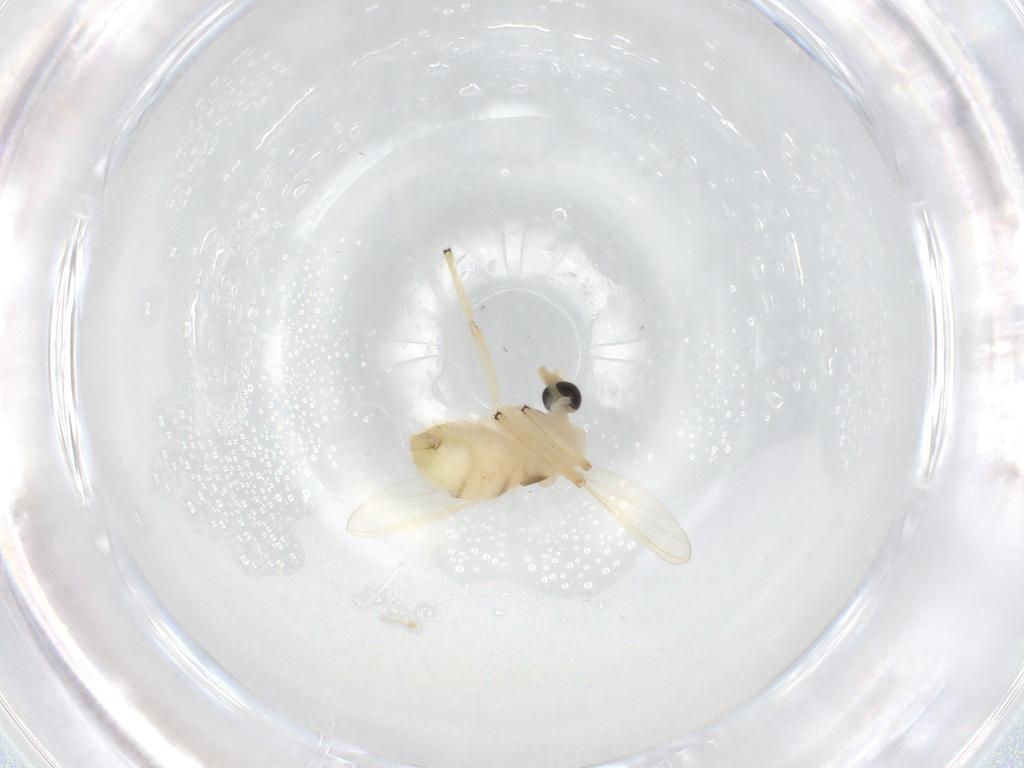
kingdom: Animalia
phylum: Arthropoda
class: Insecta
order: Diptera
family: Chironomidae
